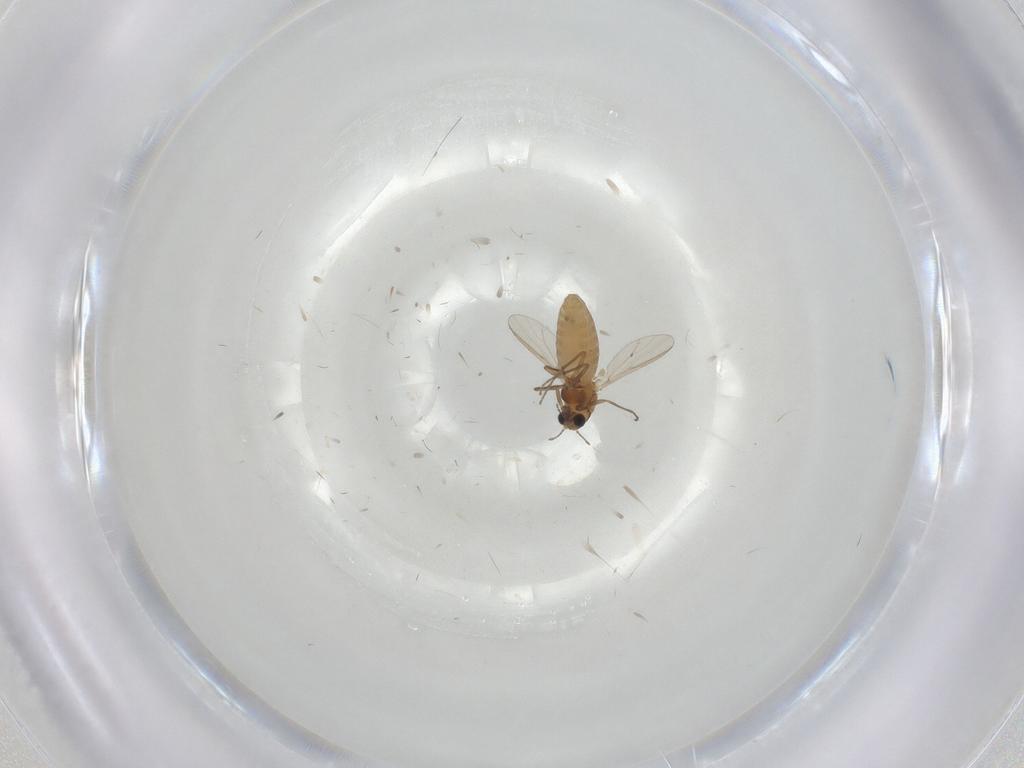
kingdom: Animalia
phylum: Arthropoda
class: Insecta
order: Diptera
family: Chironomidae
